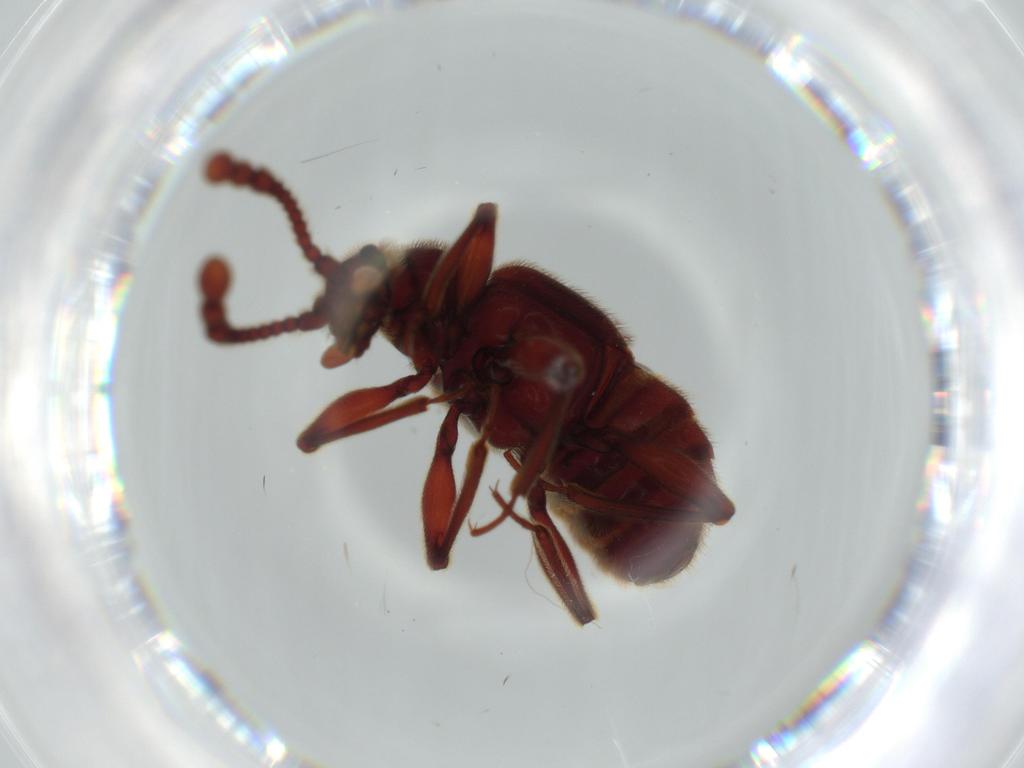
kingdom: Animalia
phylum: Arthropoda
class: Insecta
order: Coleoptera
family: Staphylinidae
